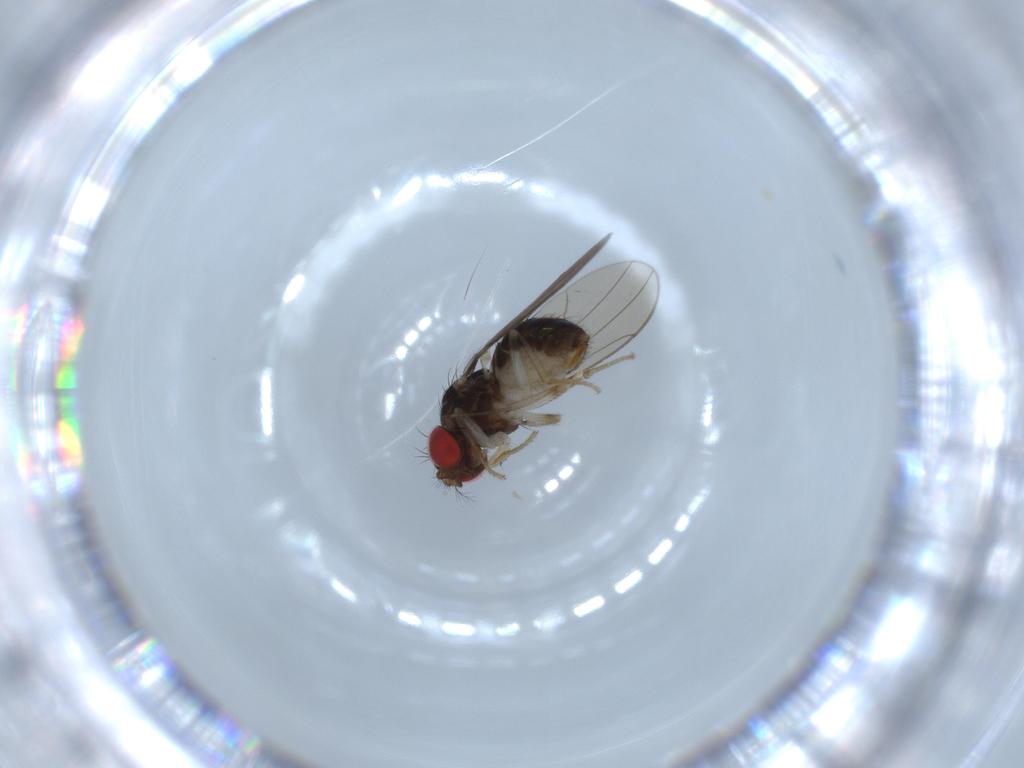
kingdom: Animalia
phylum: Arthropoda
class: Insecta
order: Diptera
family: Drosophilidae
